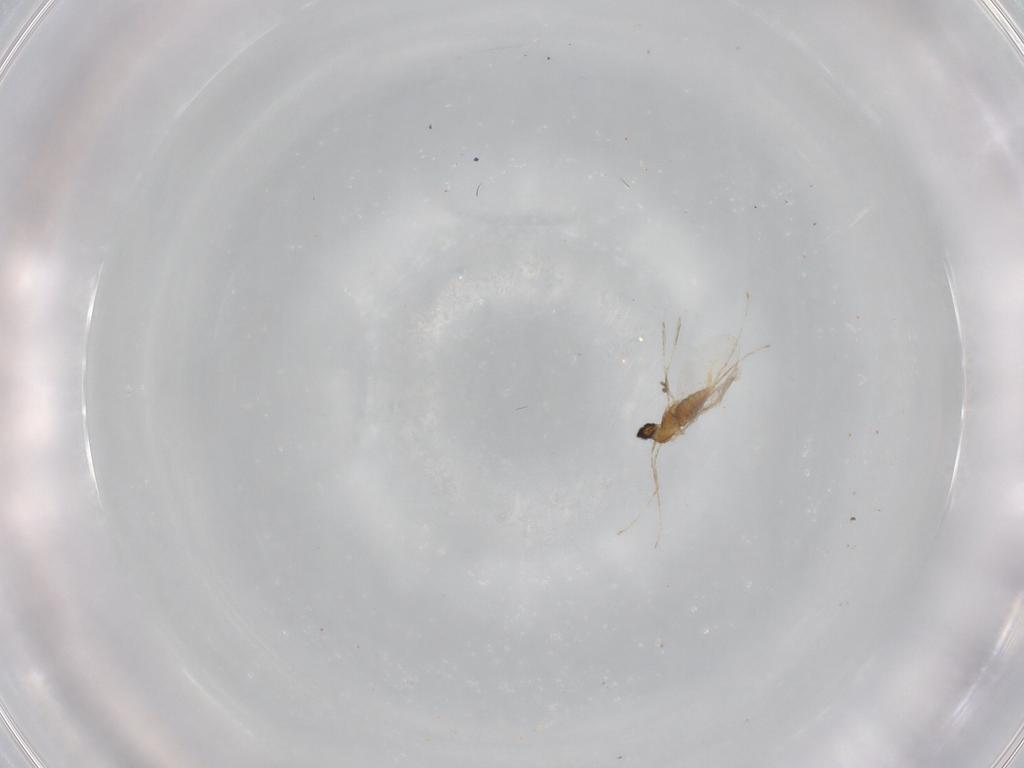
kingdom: Animalia
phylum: Arthropoda
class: Insecta
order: Diptera
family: Cecidomyiidae
